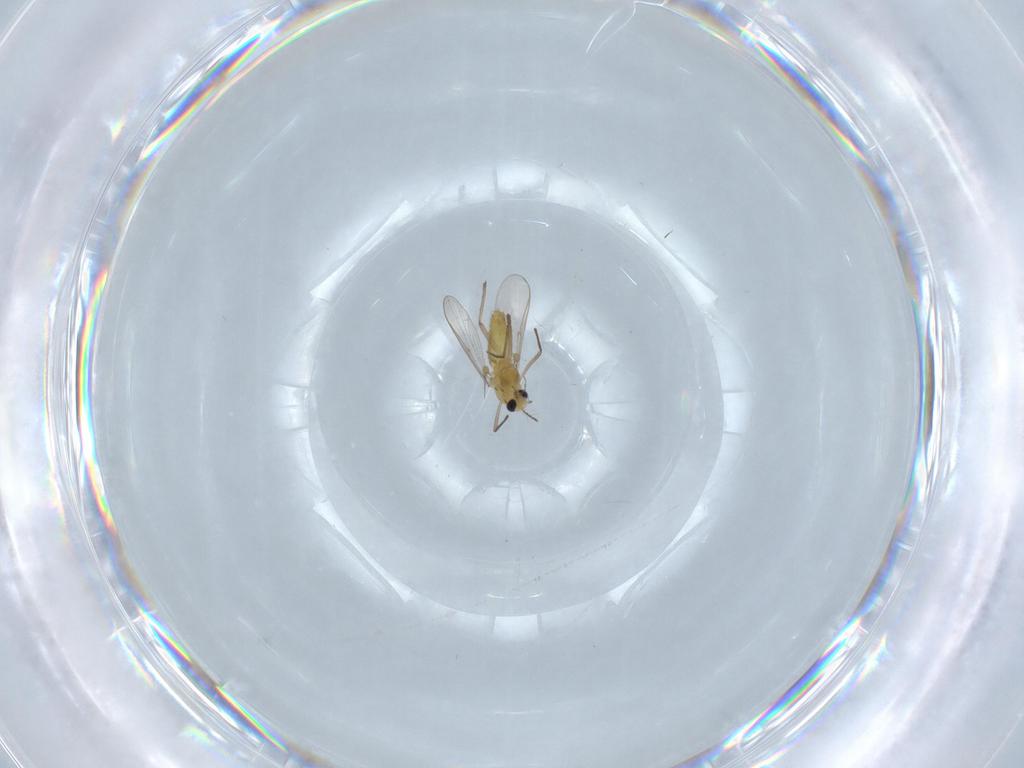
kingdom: Animalia
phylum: Arthropoda
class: Insecta
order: Diptera
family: Chironomidae
